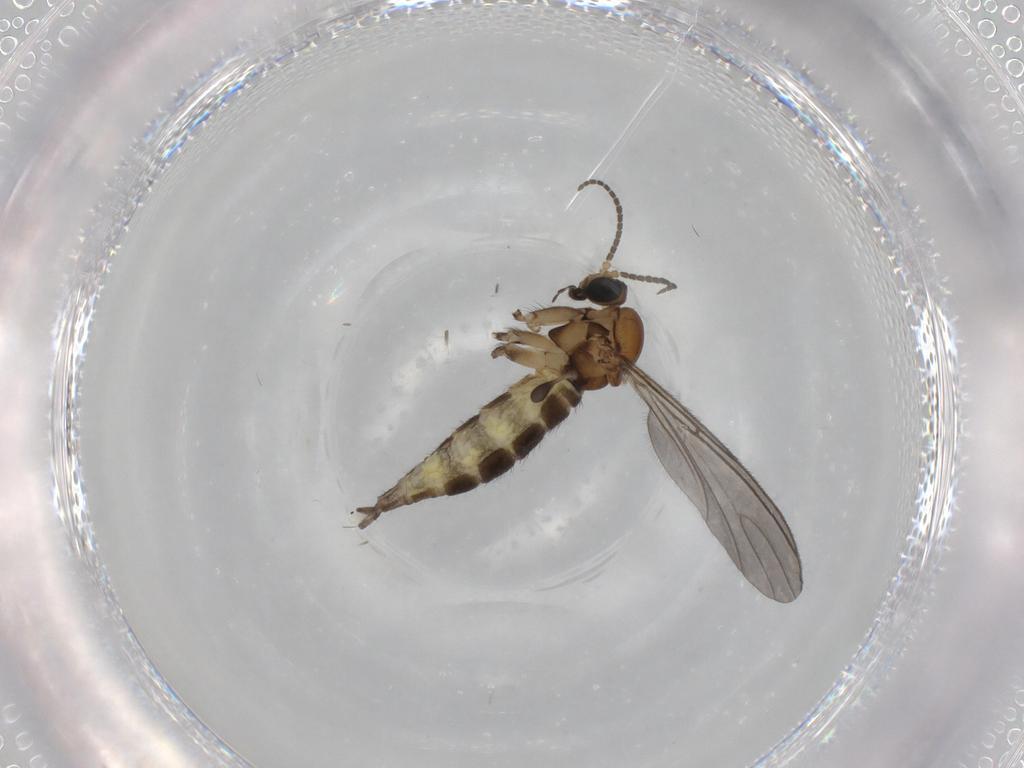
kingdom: Animalia
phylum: Arthropoda
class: Insecta
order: Diptera
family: Sciaridae
